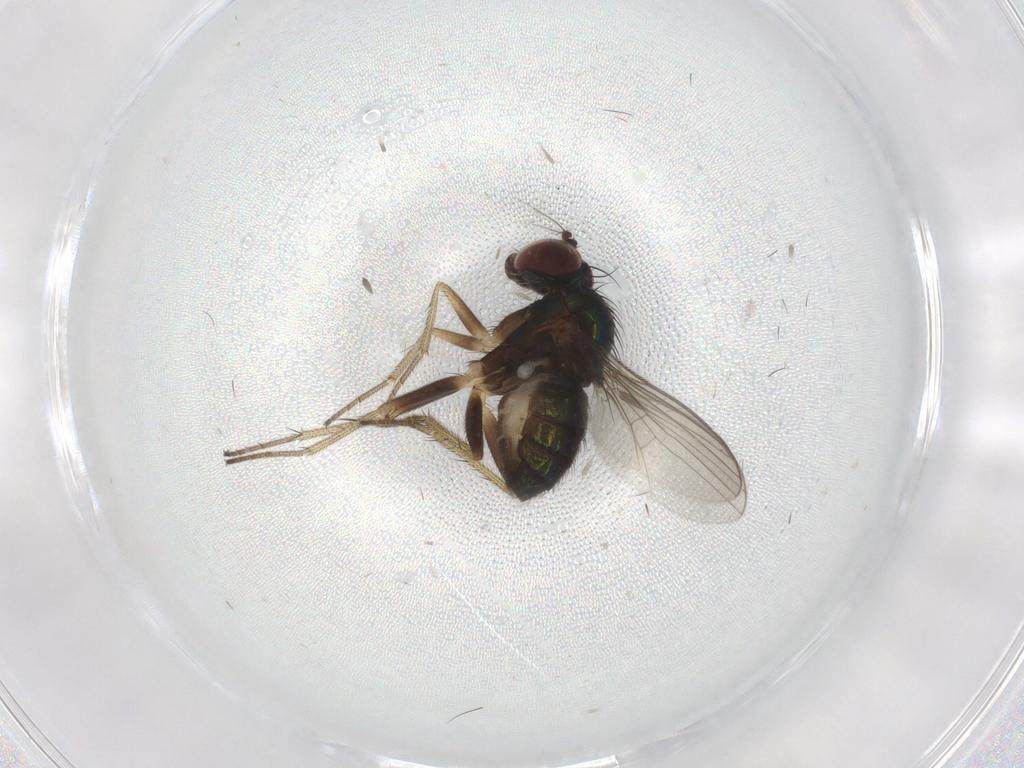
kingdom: Animalia
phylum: Arthropoda
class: Insecta
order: Diptera
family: Dolichopodidae
